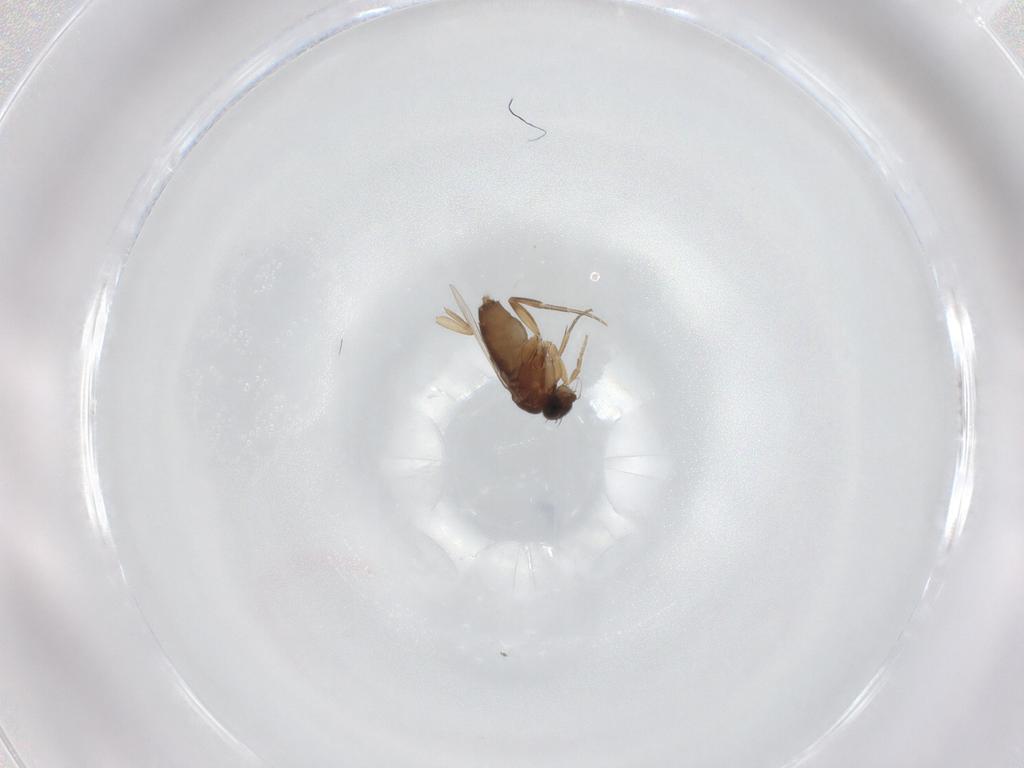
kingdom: Animalia
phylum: Arthropoda
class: Insecta
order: Diptera
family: Phoridae
